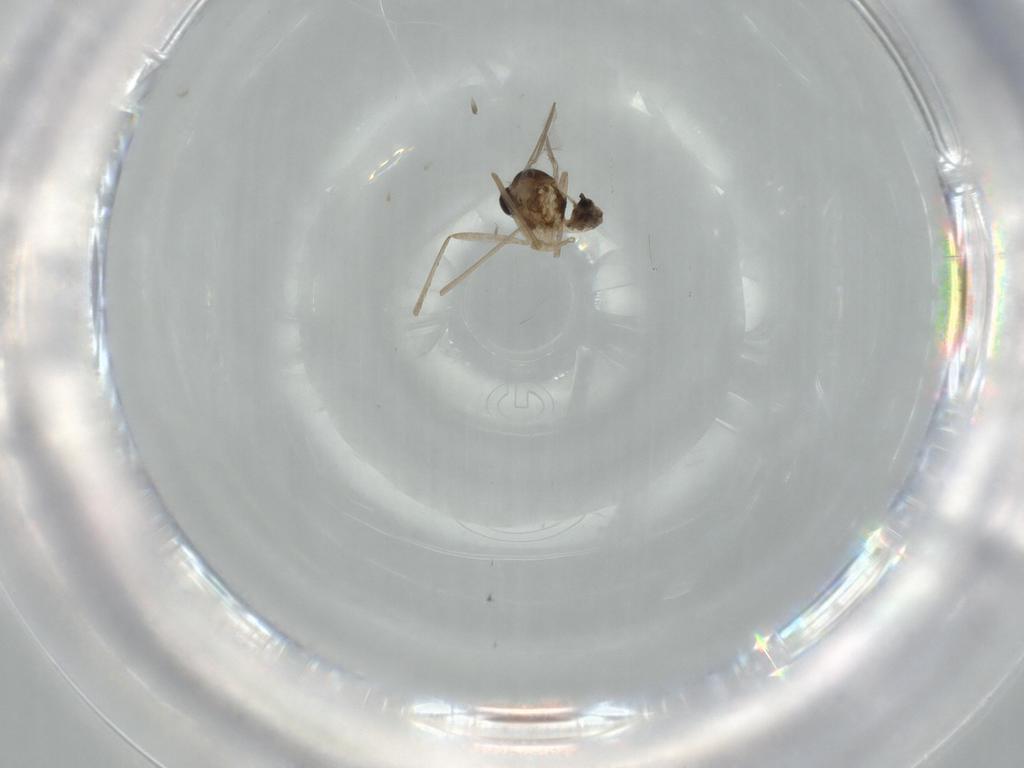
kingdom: Animalia
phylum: Arthropoda
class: Insecta
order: Diptera
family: Cecidomyiidae
